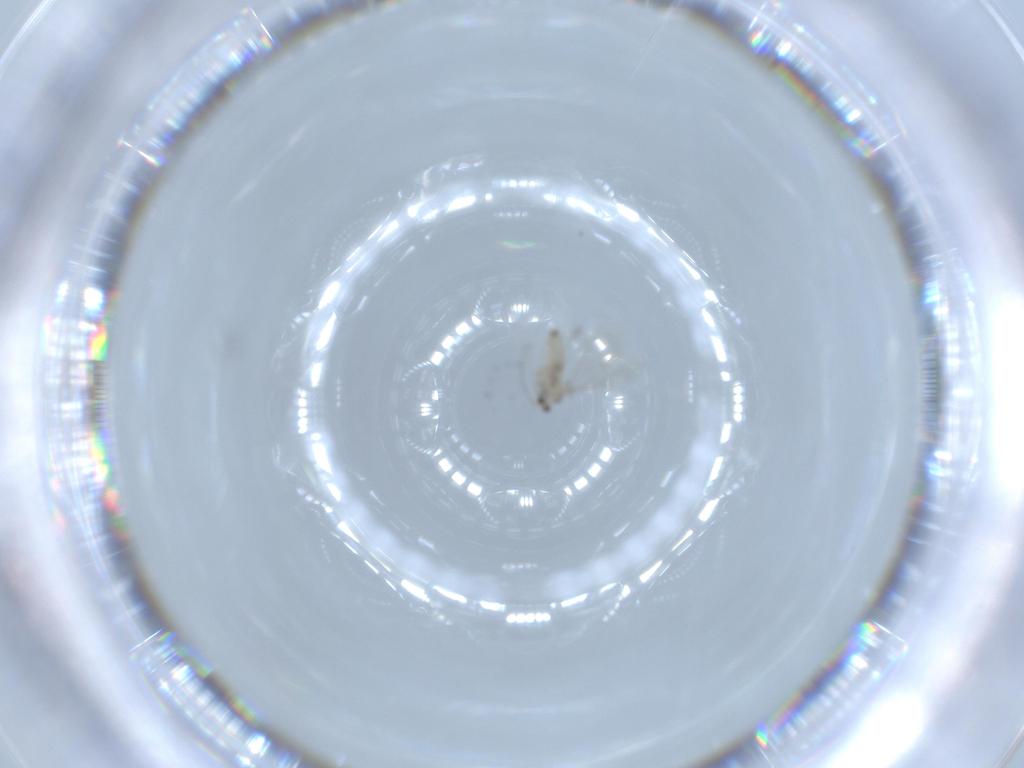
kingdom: Animalia
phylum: Arthropoda
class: Insecta
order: Diptera
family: Cecidomyiidae
